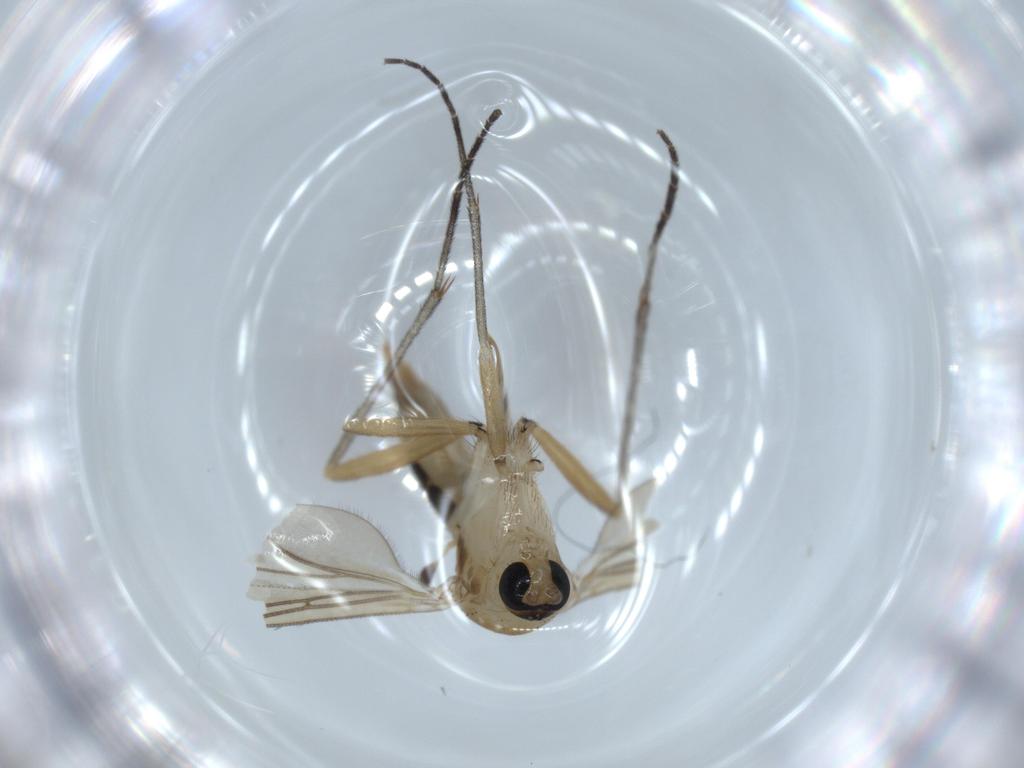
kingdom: Animalia
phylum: Arthropoda
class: Insecta
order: Diptera
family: Sciaridae
